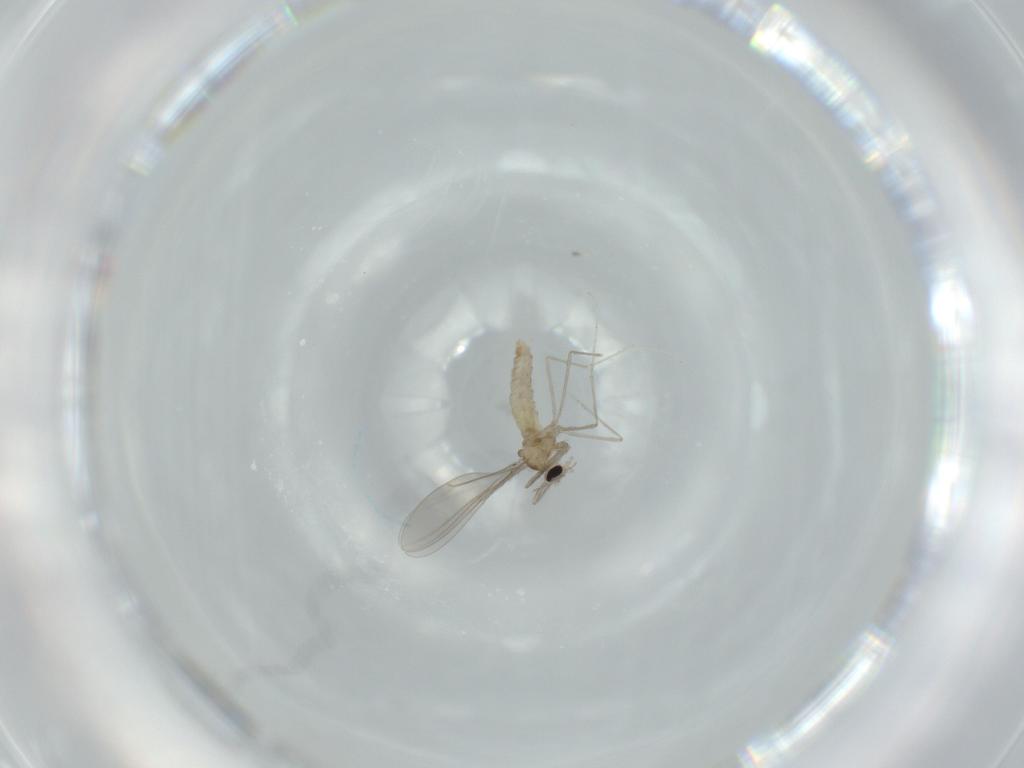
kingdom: Animalia
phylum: Arthropoda
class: Insecta
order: Diptera
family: Cecidomyiidae
